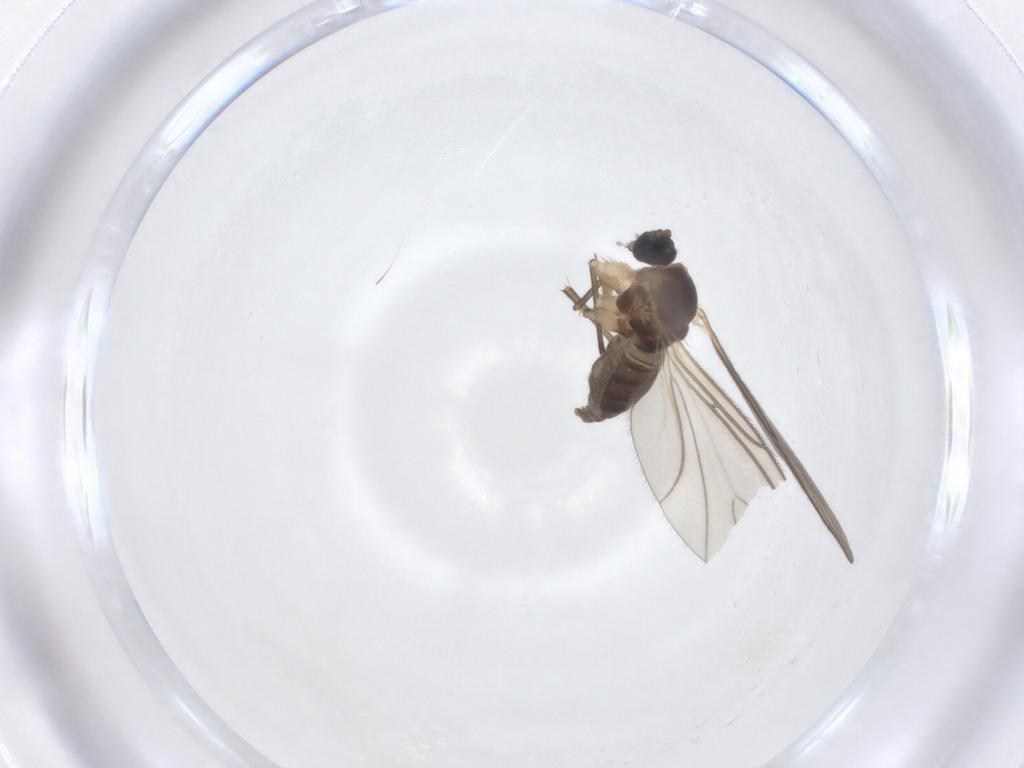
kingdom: Animalia
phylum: Arthropoda
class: Insecta
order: Diptera
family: Sciaridae
